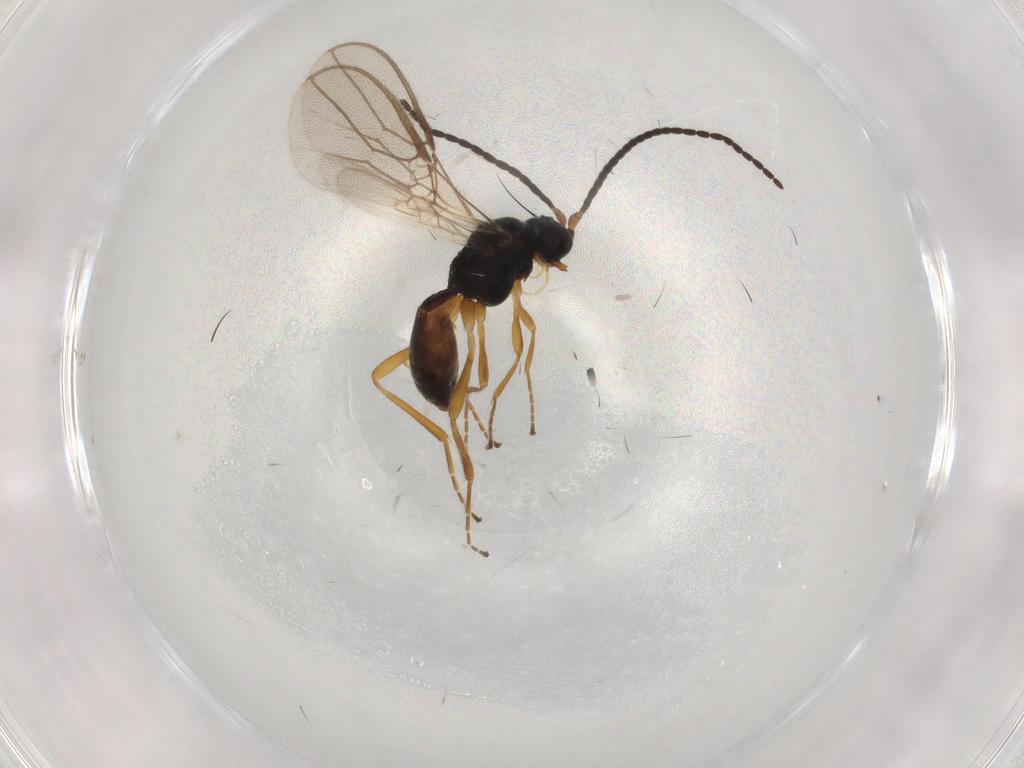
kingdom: Animalia
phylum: Arthropoda
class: Insecta
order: Hymenoptera
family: Braconidae
